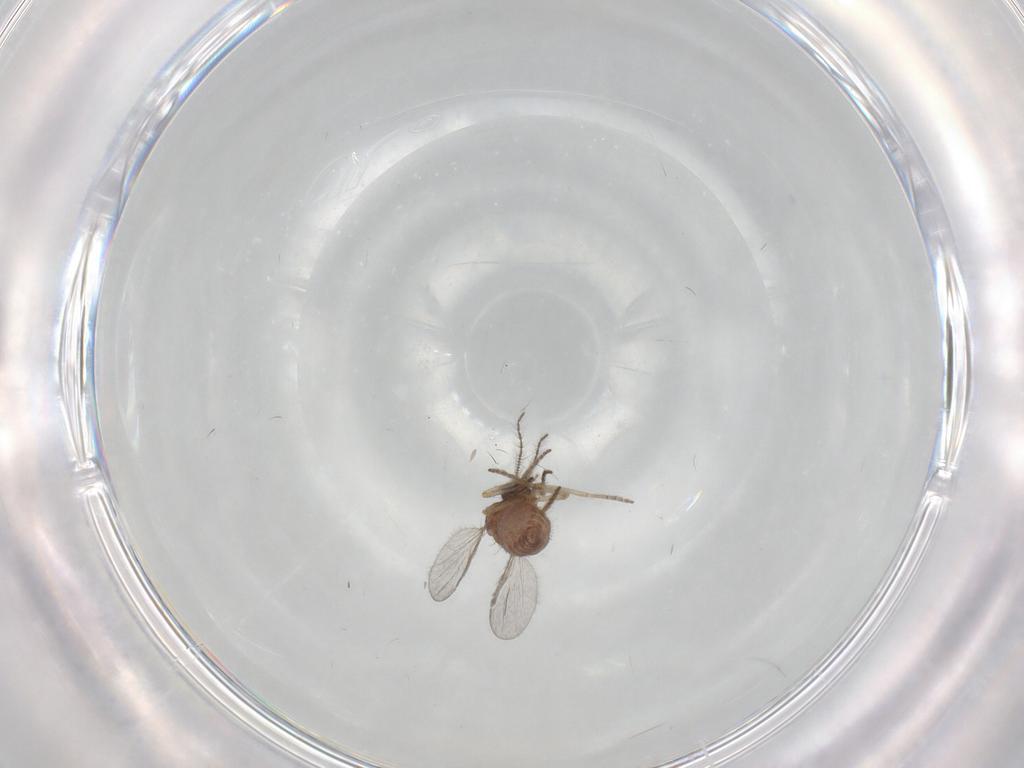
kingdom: Animalia
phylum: Arthropoda
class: Insecta
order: Diptera
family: Ceratopogonidae
